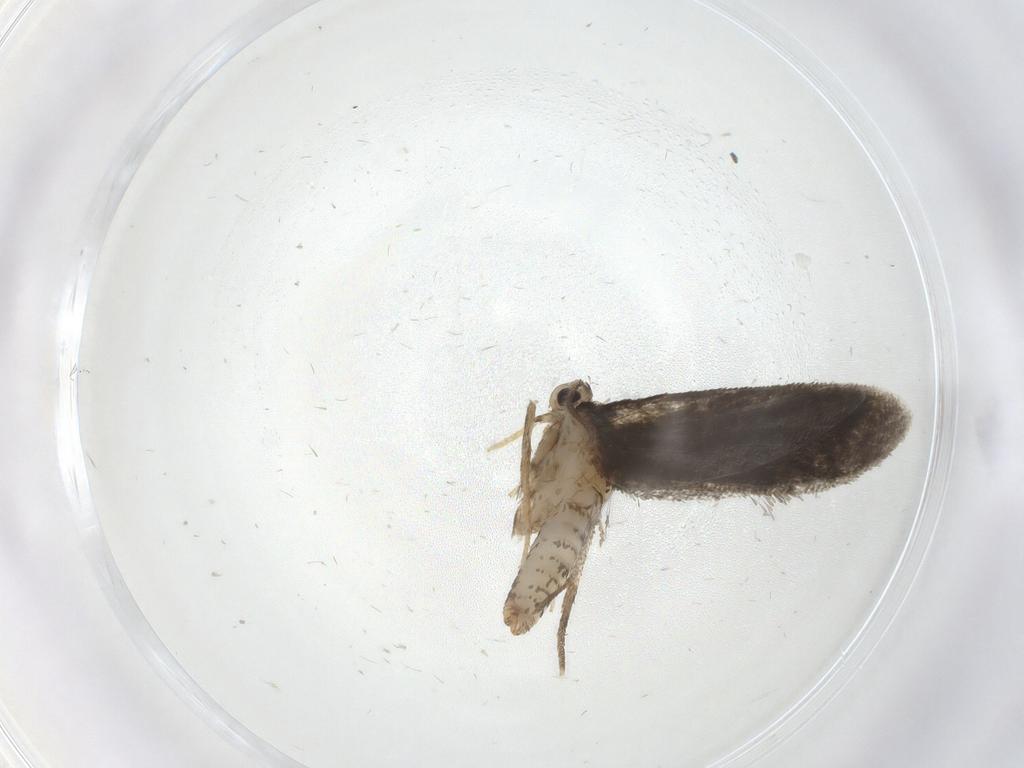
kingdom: Animalia
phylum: Arthropoda
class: Insecta
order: Lepidoptera
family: Psychidae
